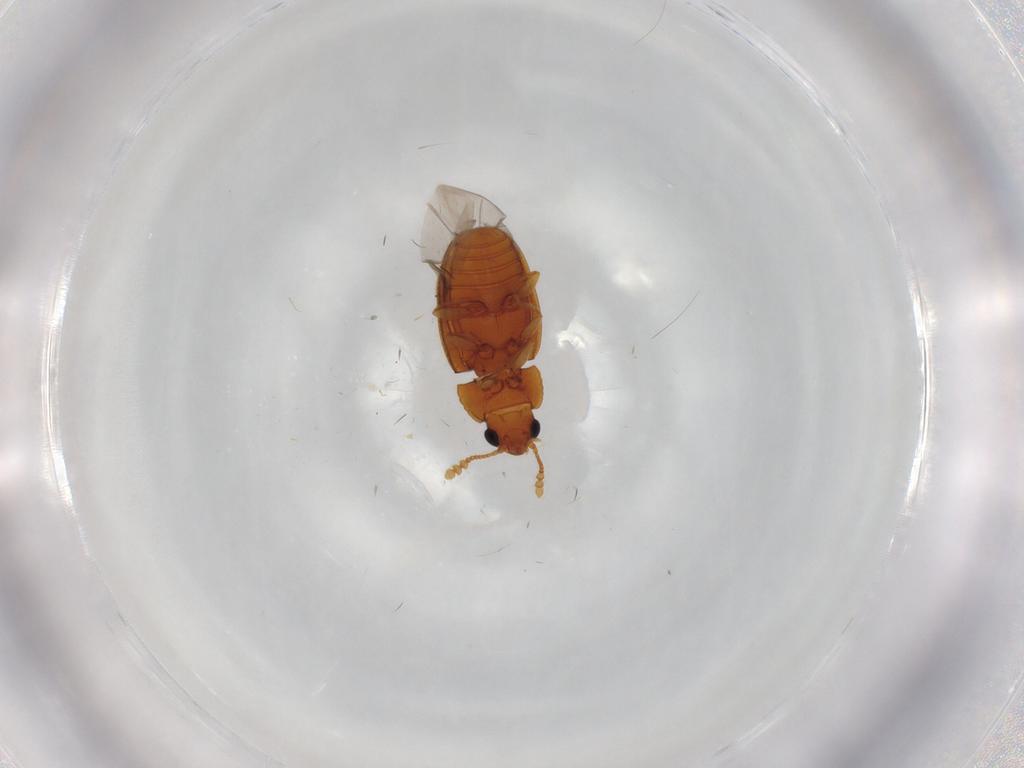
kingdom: Animalia
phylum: Arthropoda
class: Insecta
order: Coleoptera
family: Erotylidae
